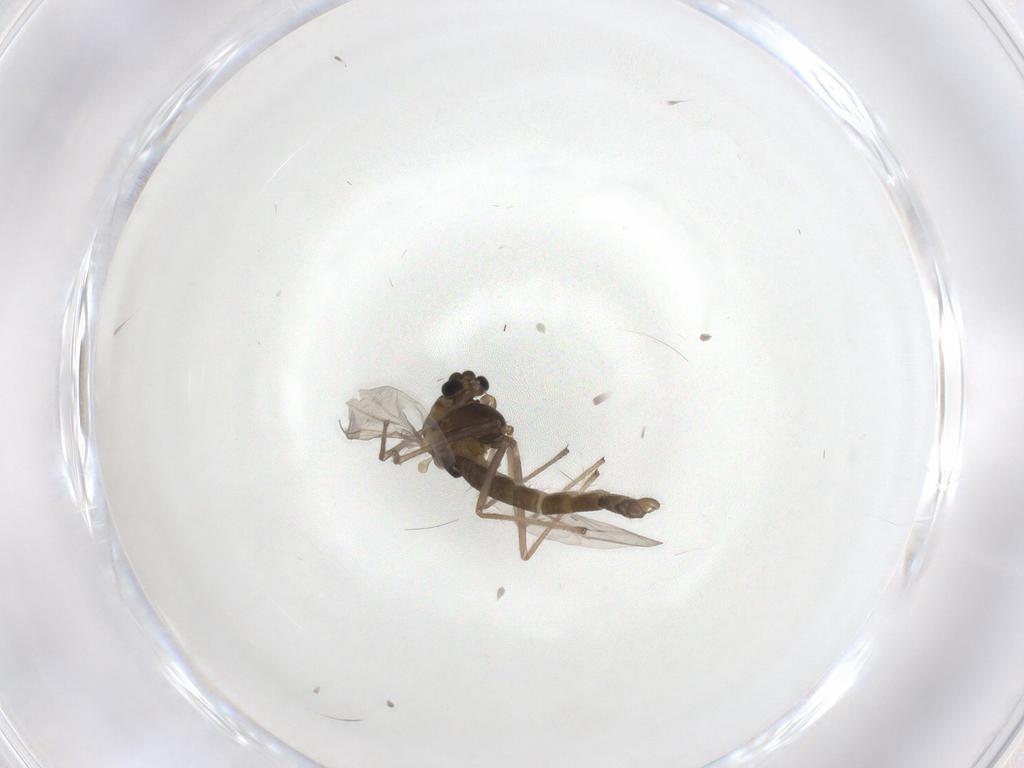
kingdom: Animalia
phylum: Arthropoda
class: Insecta
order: Diptera
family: Chironomidae
